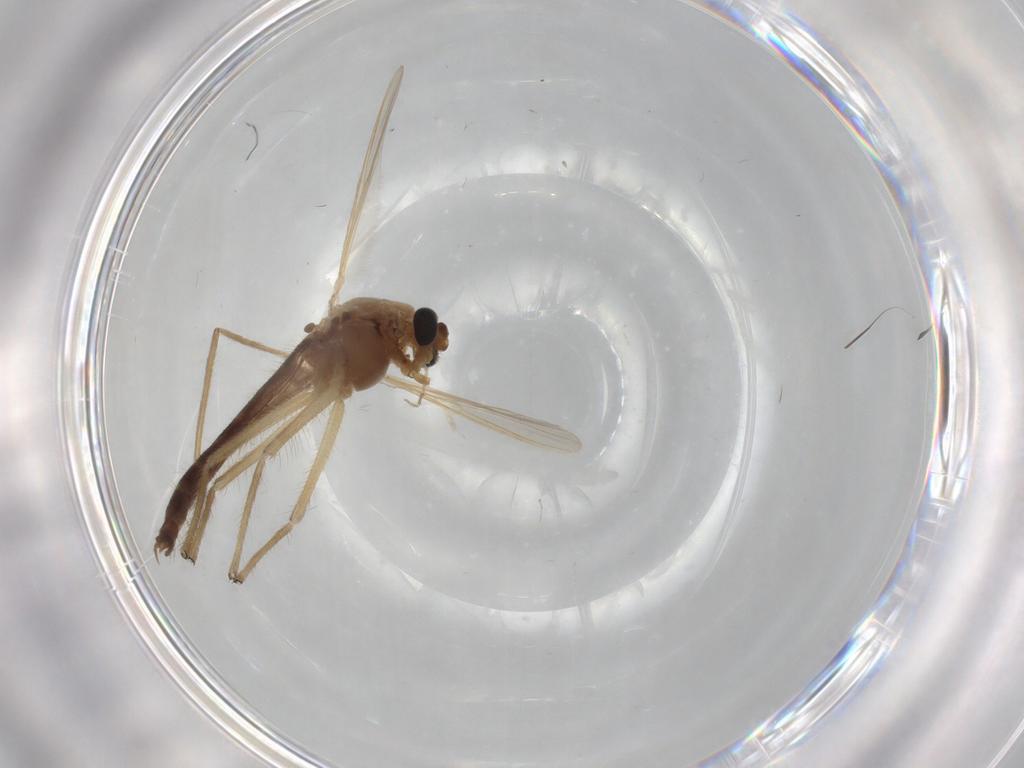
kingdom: Animalia
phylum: Arthropoda
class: Insecta
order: Diptera
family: Chironomidae
